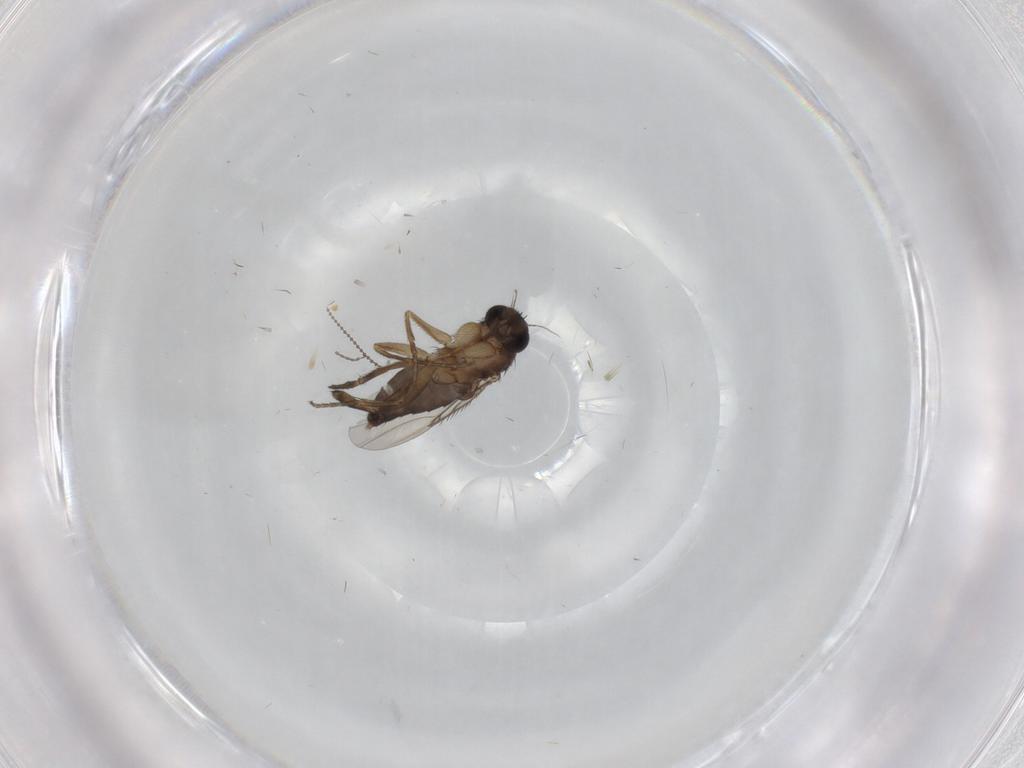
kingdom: Animalia
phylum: Arthropoda
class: Insecta
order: Diptera
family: Phoridae
